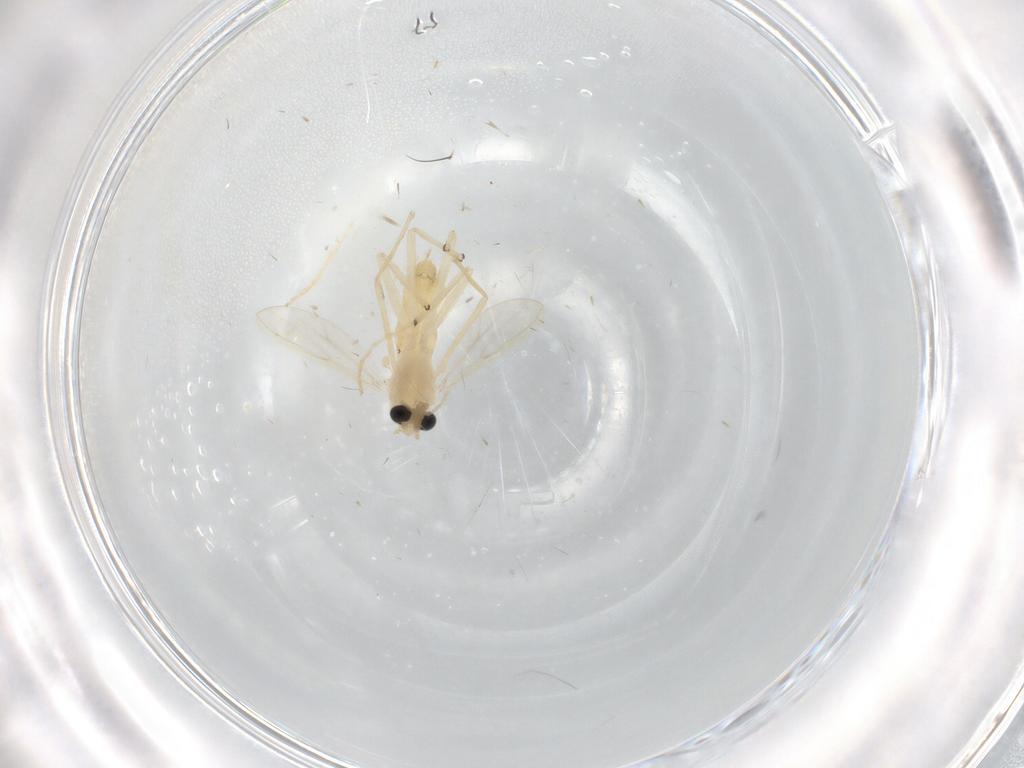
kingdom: Animalia
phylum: Arthropoda
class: Insecta
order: Diptera
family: Chironomidae
